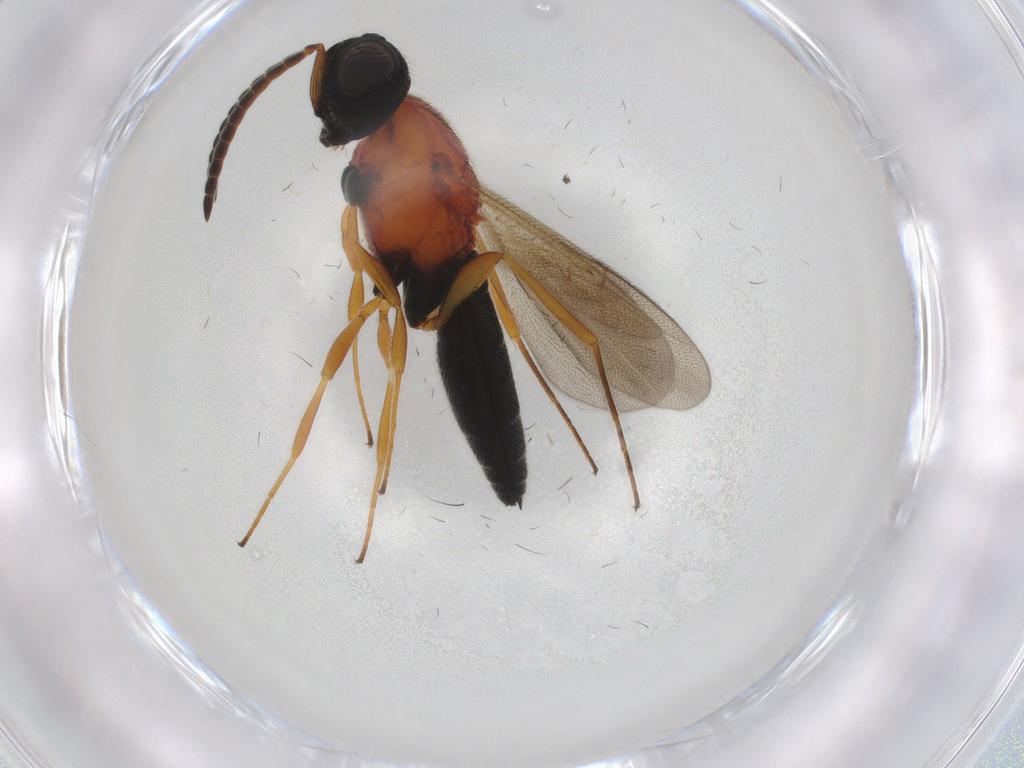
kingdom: Animalia
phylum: Arthropoda
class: Insecta
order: Hymenoptera
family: Scelionidae
